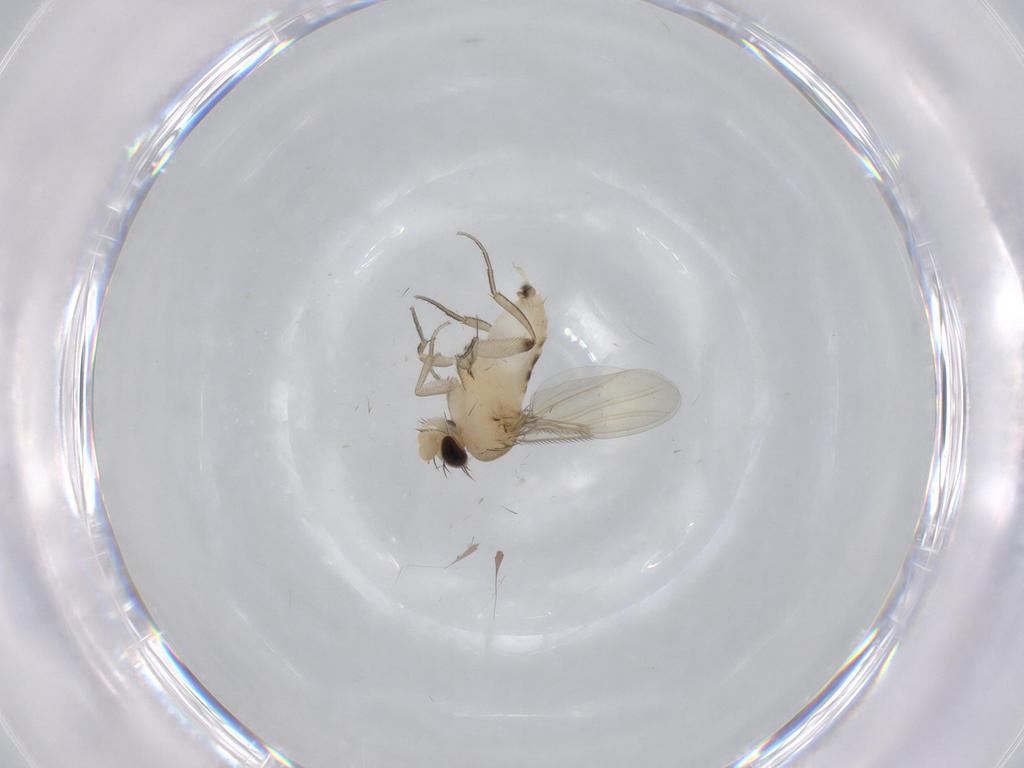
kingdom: Animalia
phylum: Arthropoda
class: Insecta
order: Diptera
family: Phoridae
